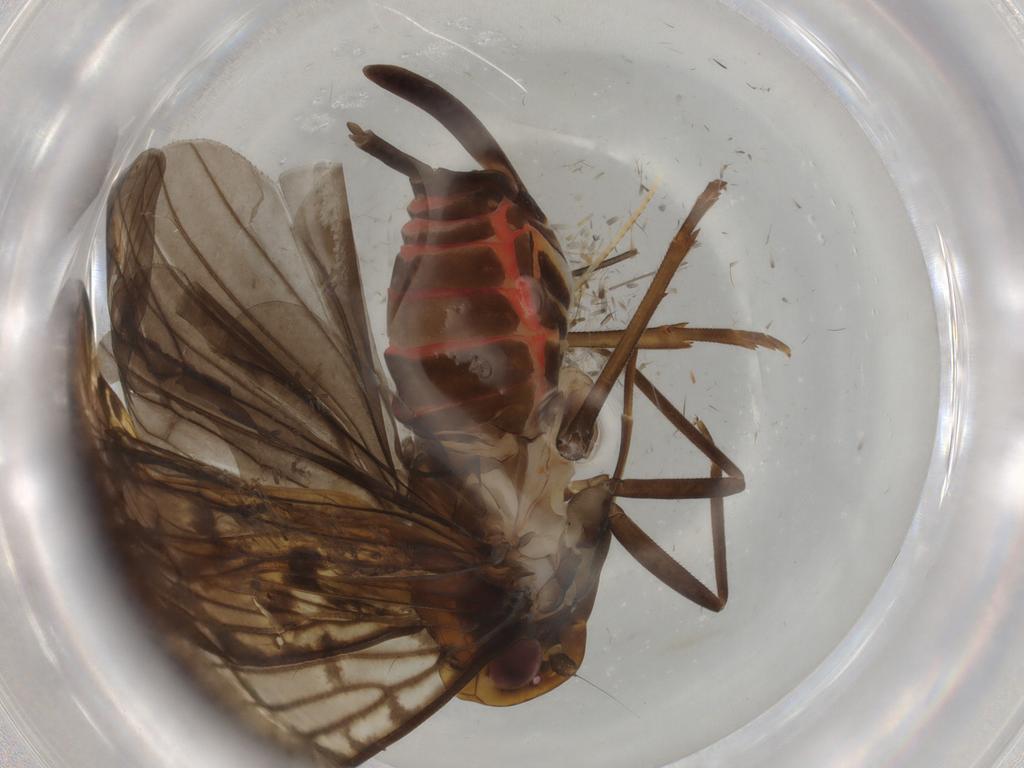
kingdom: Animalia
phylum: Arthropoda
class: Insecta
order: Hemiptera
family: Cixiidae
